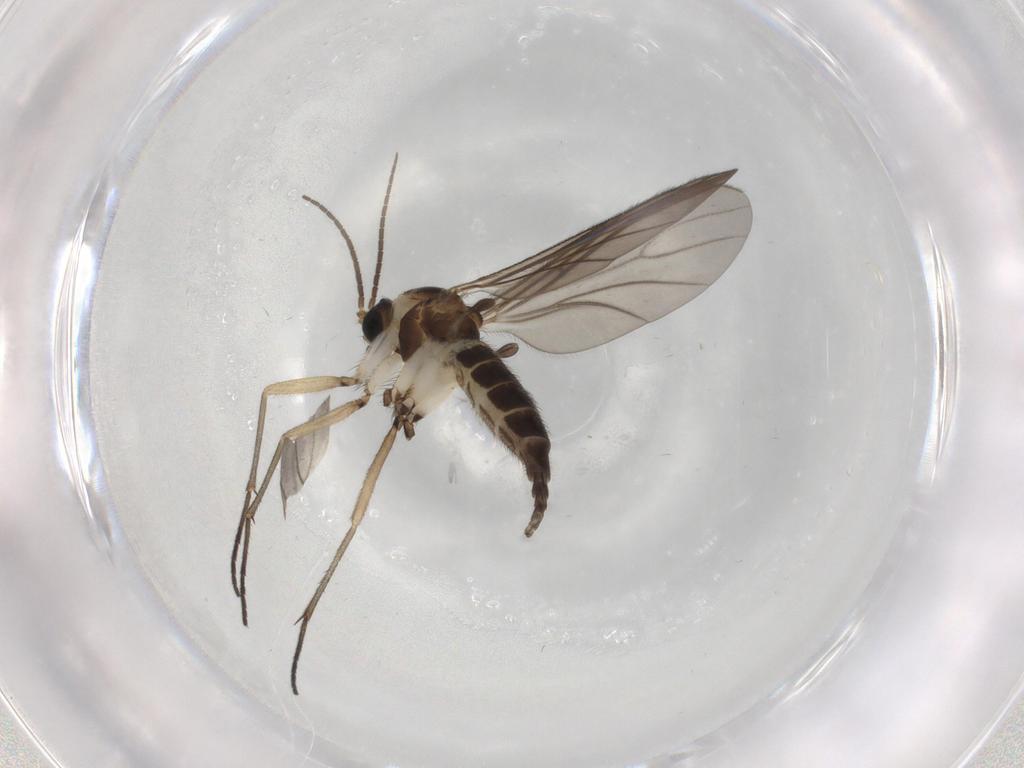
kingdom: Animalia
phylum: Arthropoda
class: Insecta
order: Diptera
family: Sciaridae
